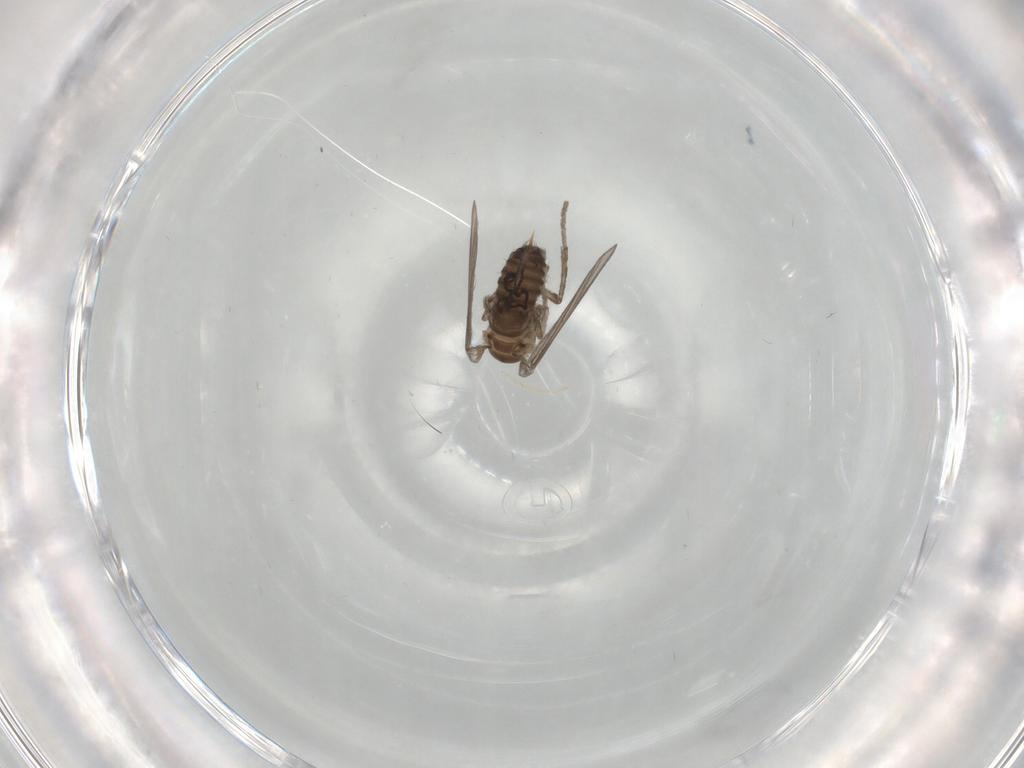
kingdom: Animalia
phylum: Arthropoda
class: Insecta
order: Diptera
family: Psychodidae
